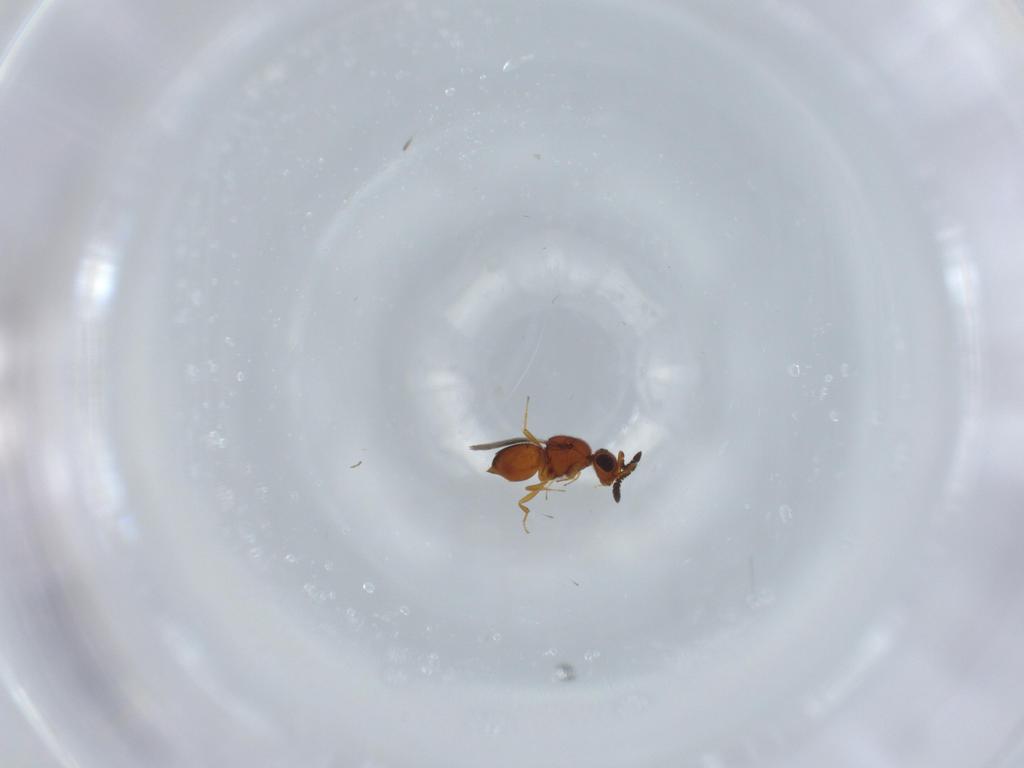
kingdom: Animalia
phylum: Arthropoda
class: Insecta
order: Hymenoptera
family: Ceraphronidae
